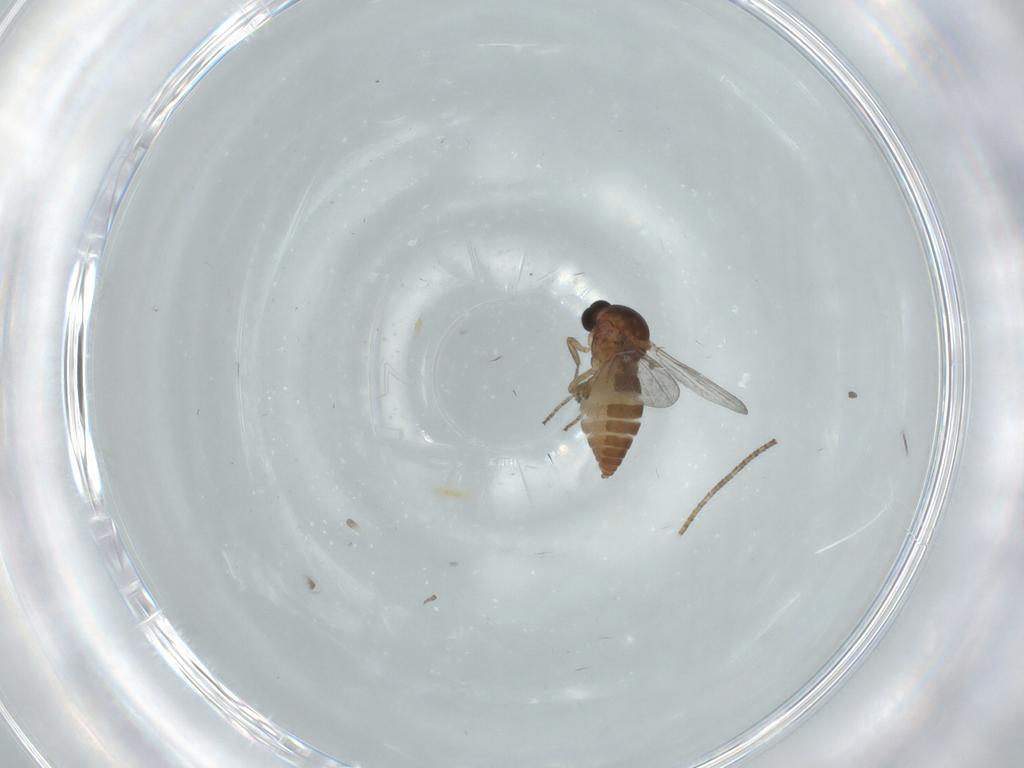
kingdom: Animalia
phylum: Arthropoda
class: Insecta
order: Diptera
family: Ceratopogonidae
